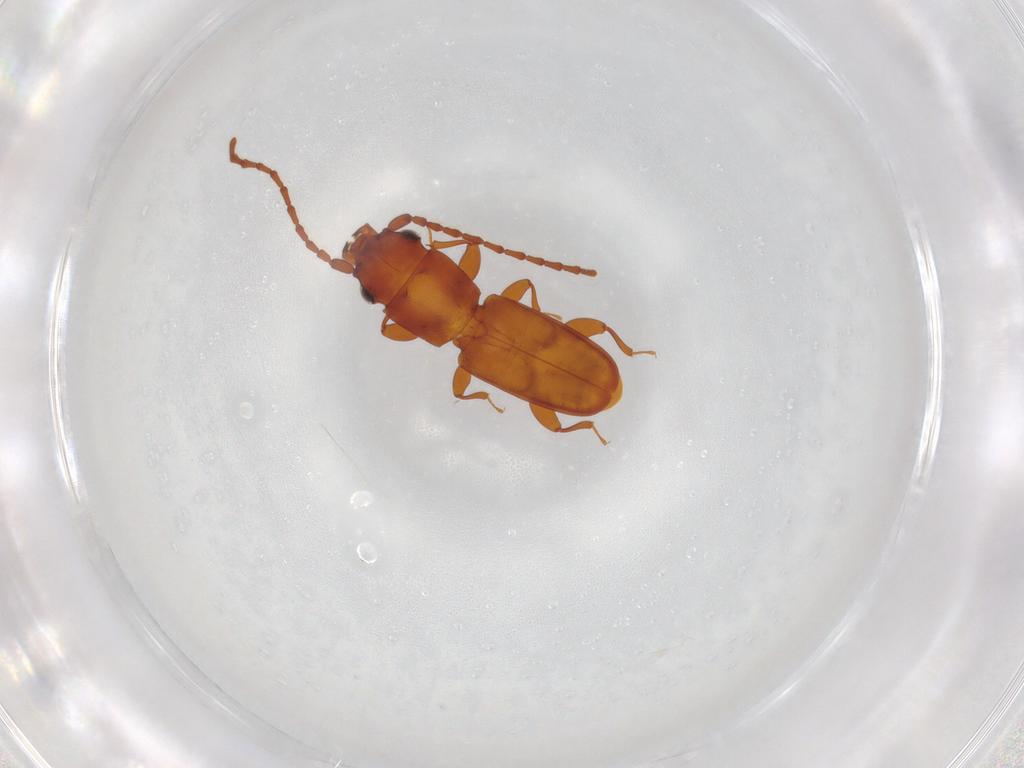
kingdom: Animalia
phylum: Arthropoda
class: Insecta
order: Coleoptera
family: Laemophloeidae
